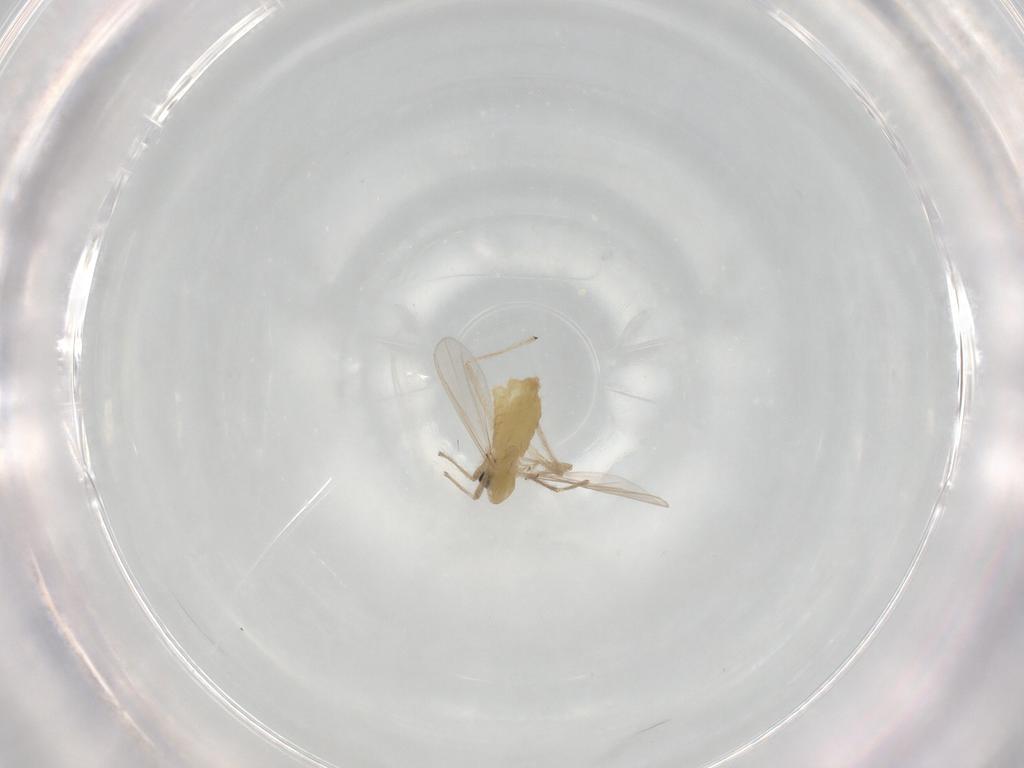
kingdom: Animalia
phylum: Arthropoda
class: Insecta
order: Diptera
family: Chironomidae
